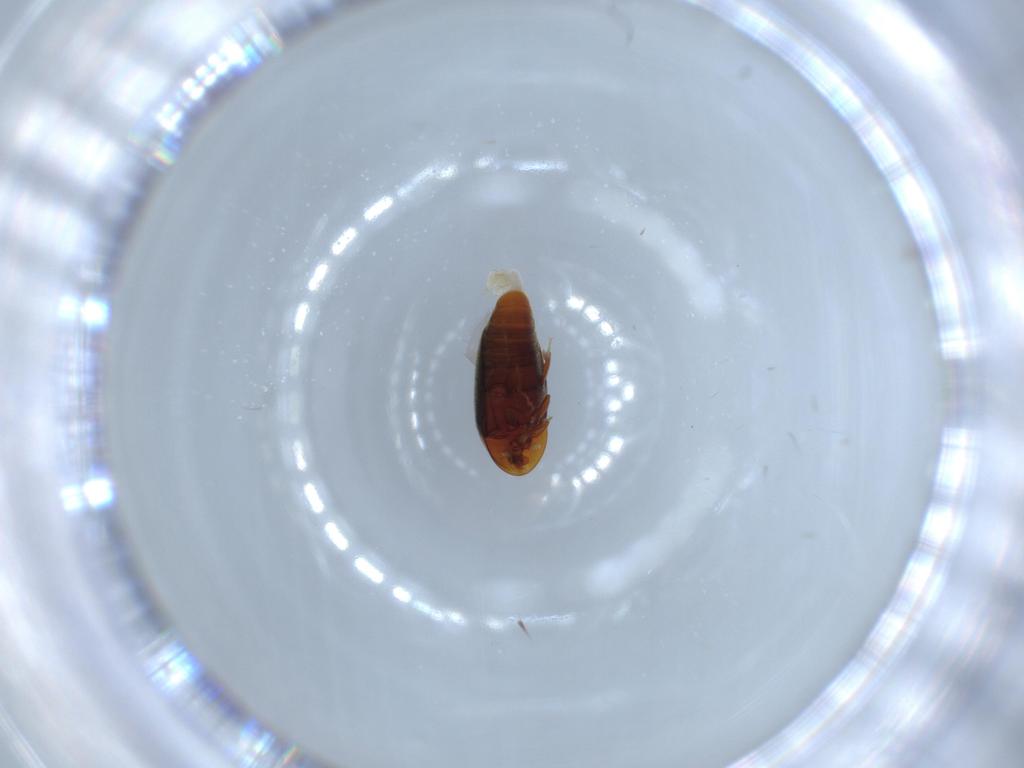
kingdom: Animalia
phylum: Arthropoda
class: Insecta
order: Coleoptera
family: Corylophidae
